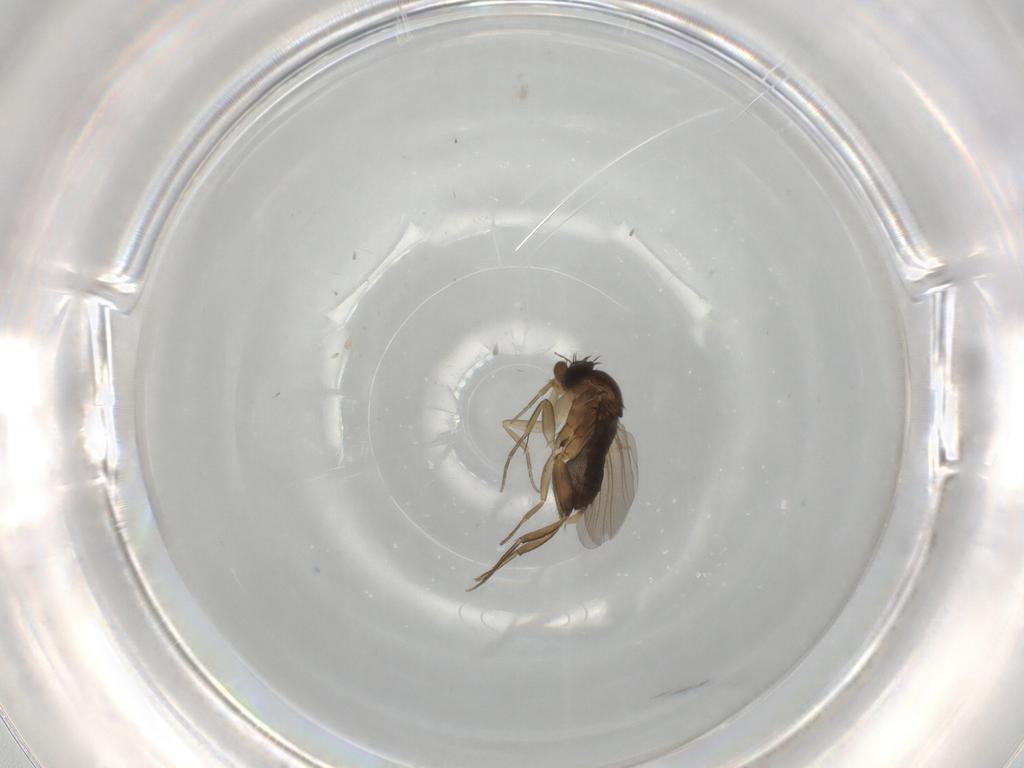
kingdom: Animalia
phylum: Arthropoda
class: Insecta
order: Diptera
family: Phoridae
